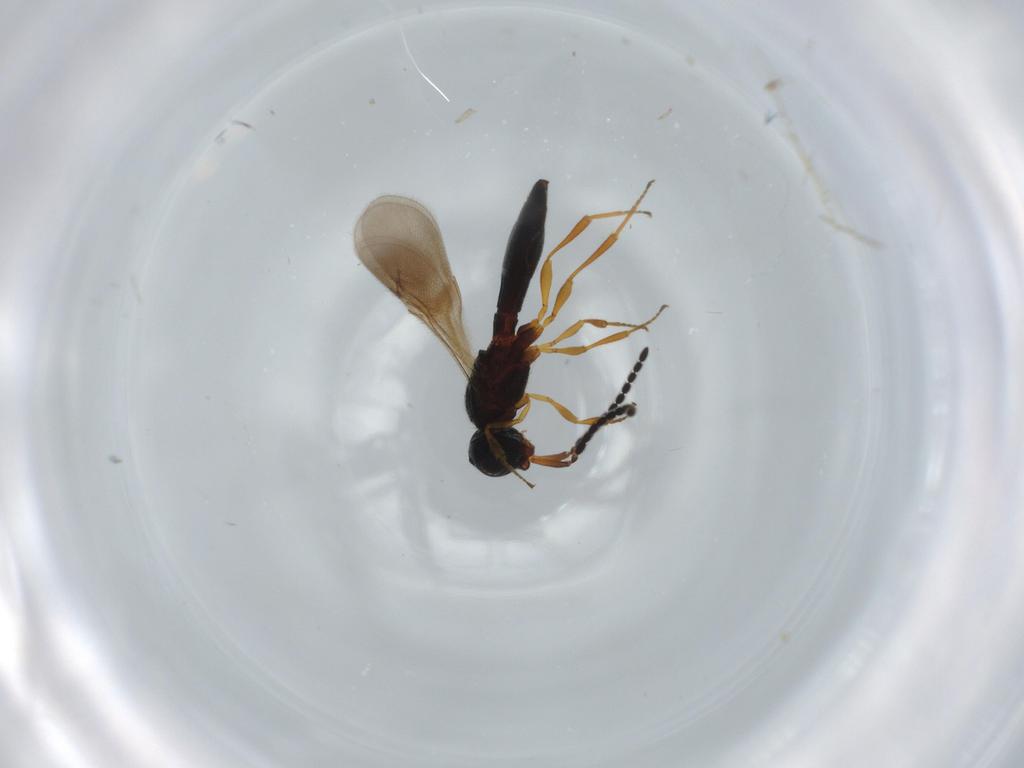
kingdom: Animalia
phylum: Arthropoda
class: Insecta
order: Hymenoptera
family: Scelionidae
